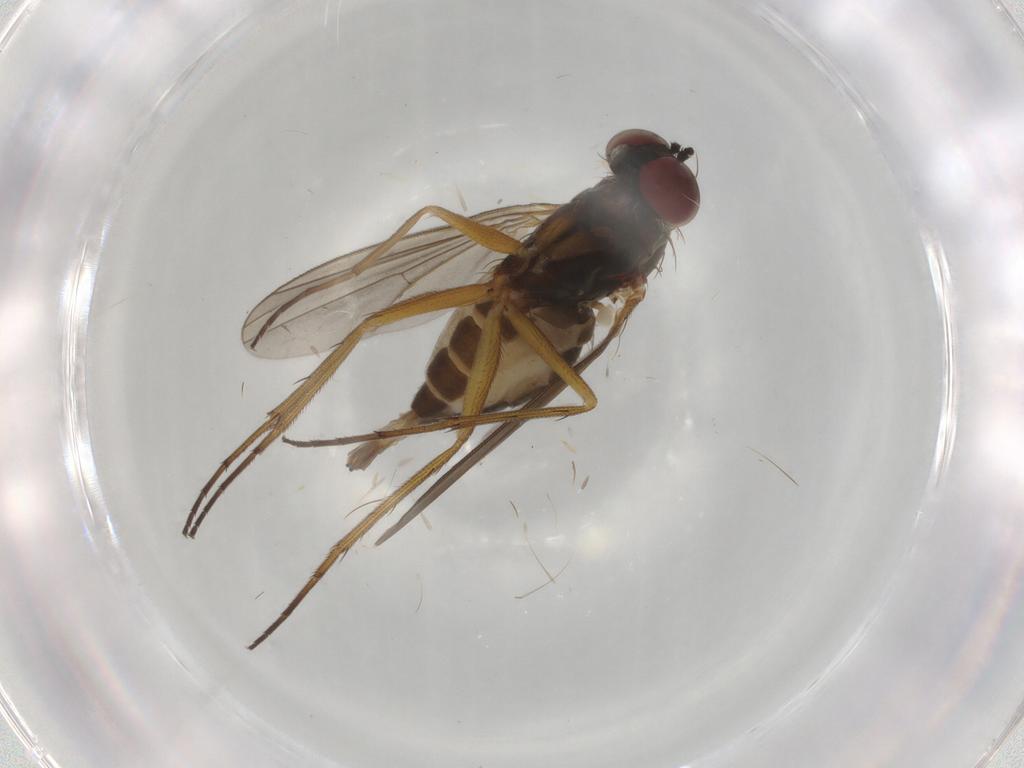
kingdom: Animalia
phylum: Arthropoda
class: Insecta
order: Diptera
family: Dolichopodidae
